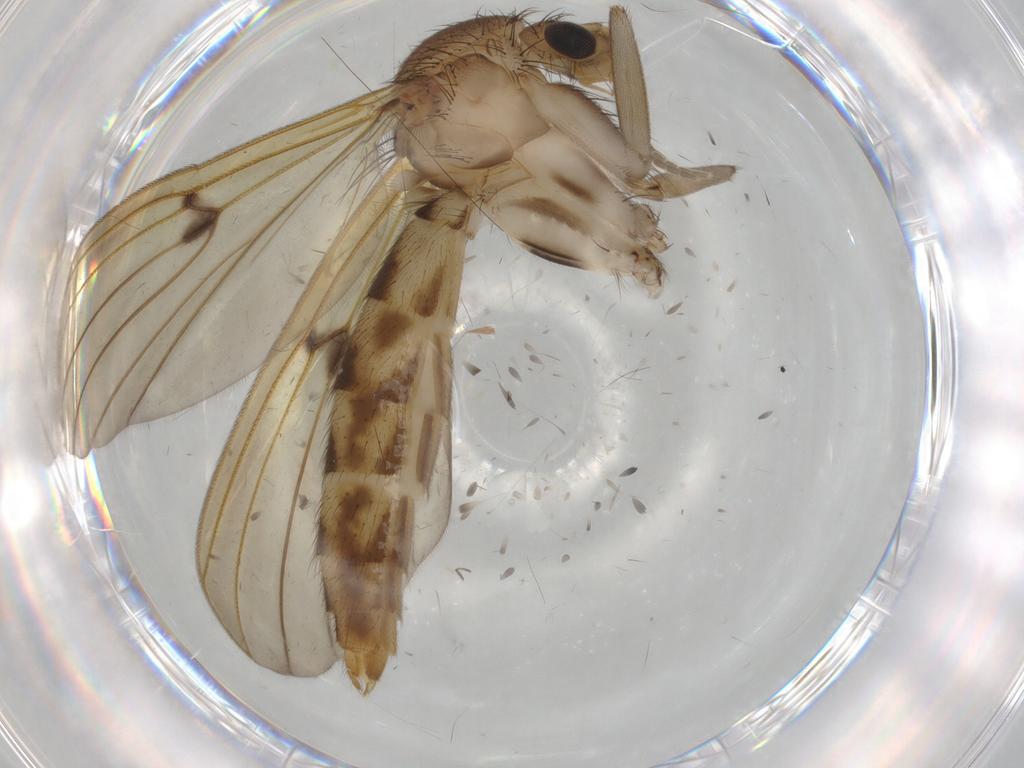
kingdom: Animalia
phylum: Arthropoda
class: Insecta
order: Diptera
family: Mycetophilidae
